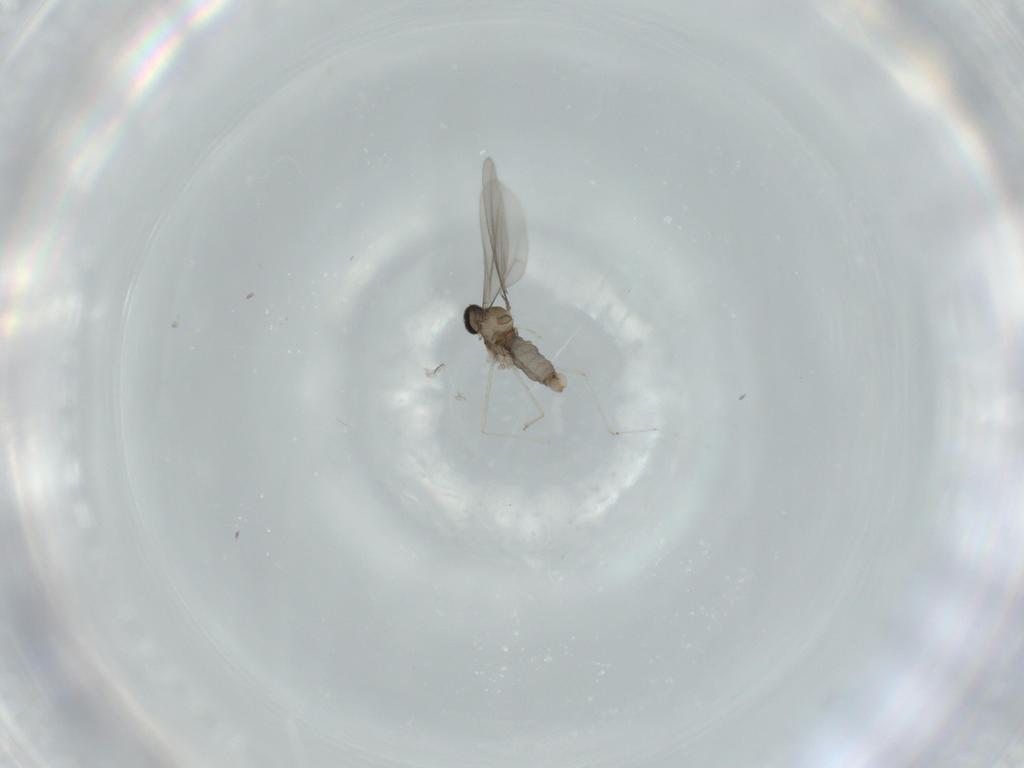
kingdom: Animalia
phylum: Arthropoda
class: Insecta
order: Diptera
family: Cecidomyiidae
